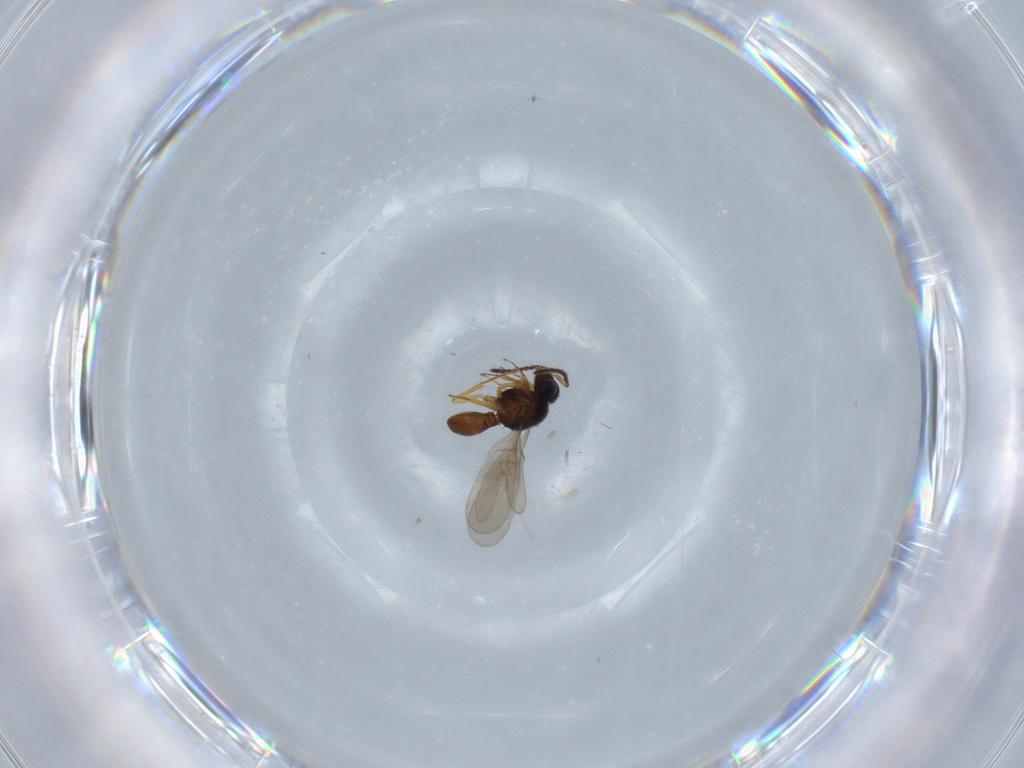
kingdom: Animalia
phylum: Arthropoda
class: Insecta
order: Hymenoptera
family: Scelionidae
